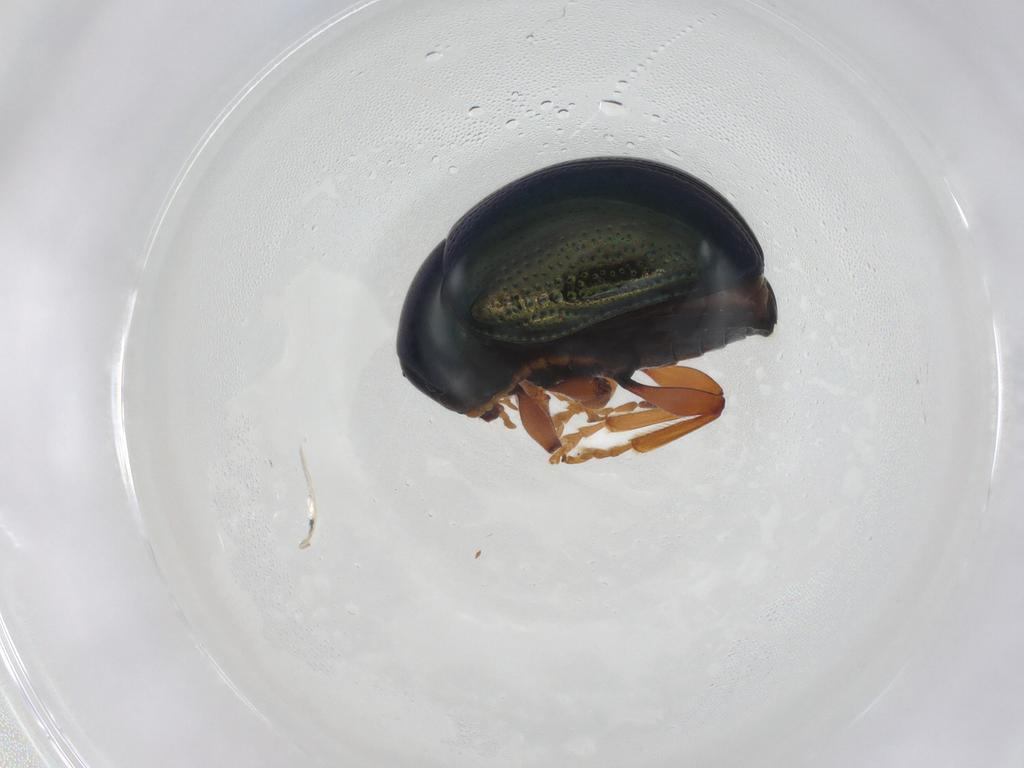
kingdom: Animalia
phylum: Arthropoda
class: Insecta
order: Coleoptera
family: Chrysomelidae
